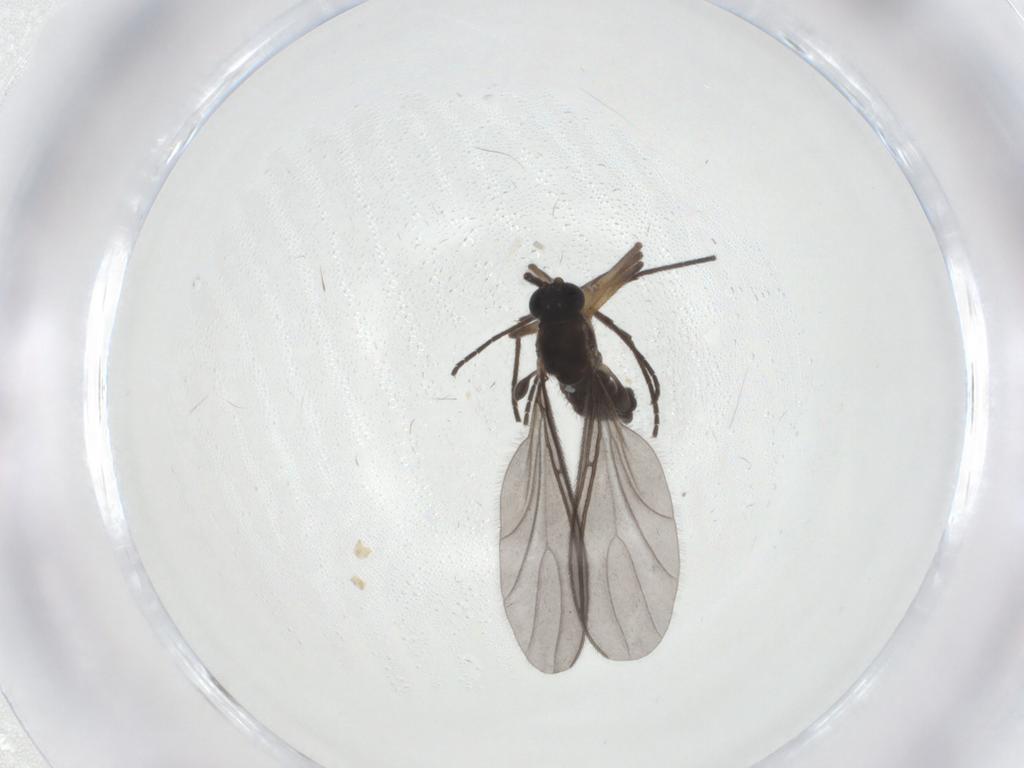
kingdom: Animalia
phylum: Arthropoda
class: Insecta
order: Diptera
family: Sciaridae
